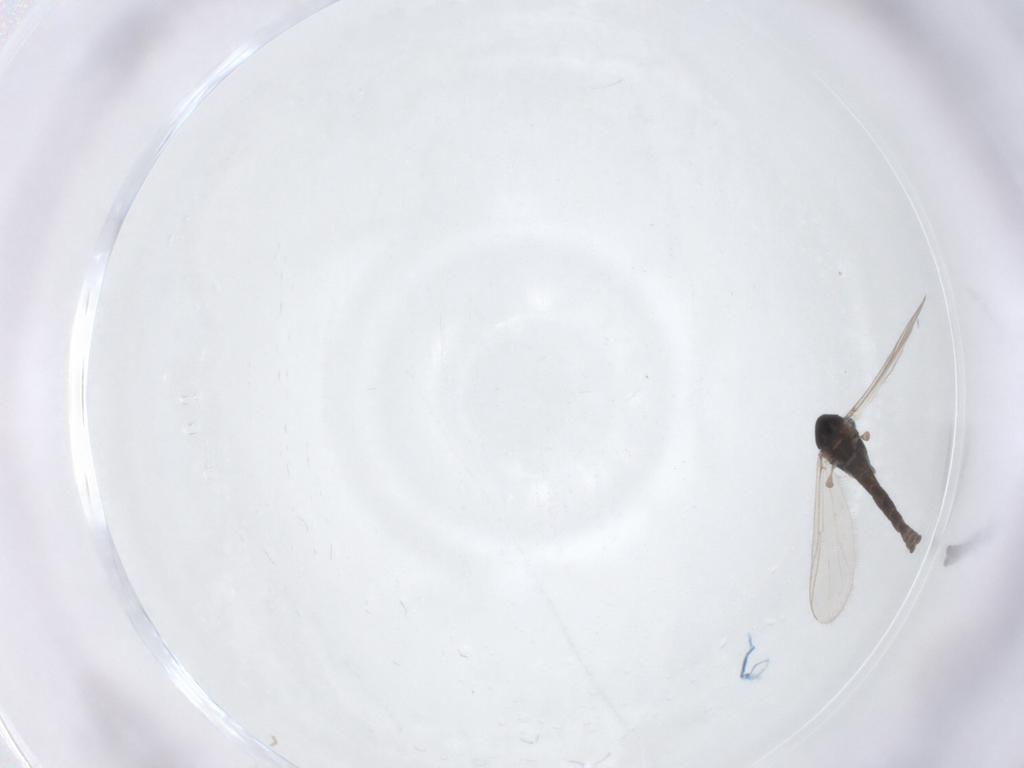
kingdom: Animalia
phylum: Arthropoda
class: Insecta
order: Diptera
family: Chironomidae
